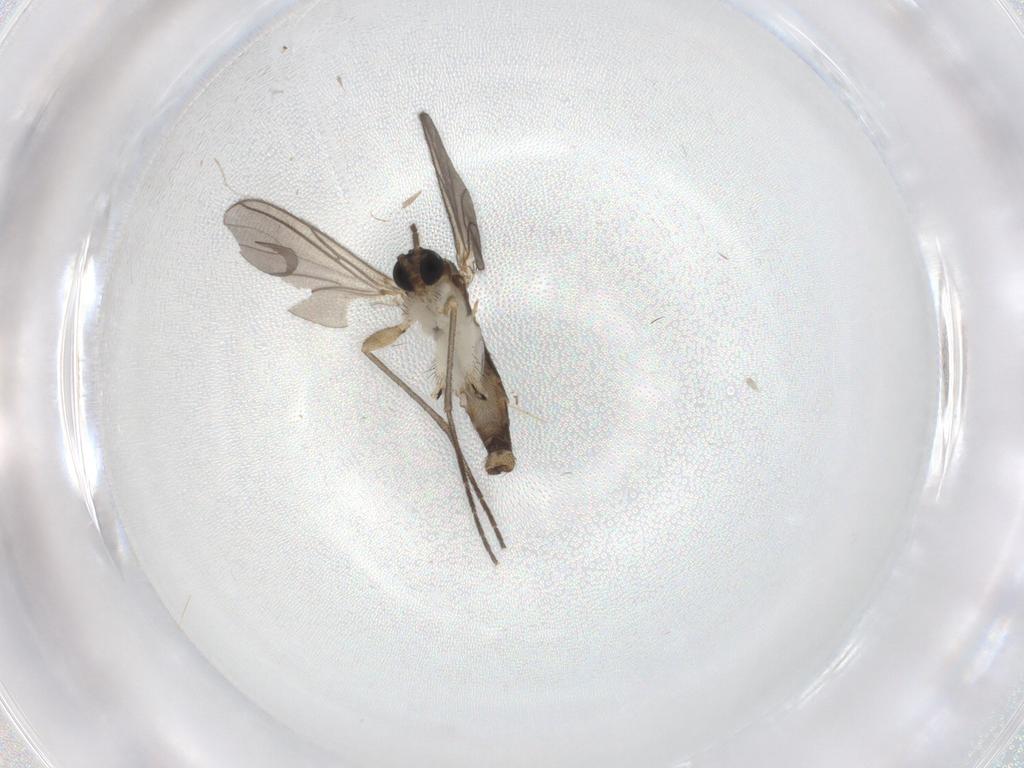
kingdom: Animalia
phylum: Arthropoda
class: Insecta
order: Diptera
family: Sciaridae
